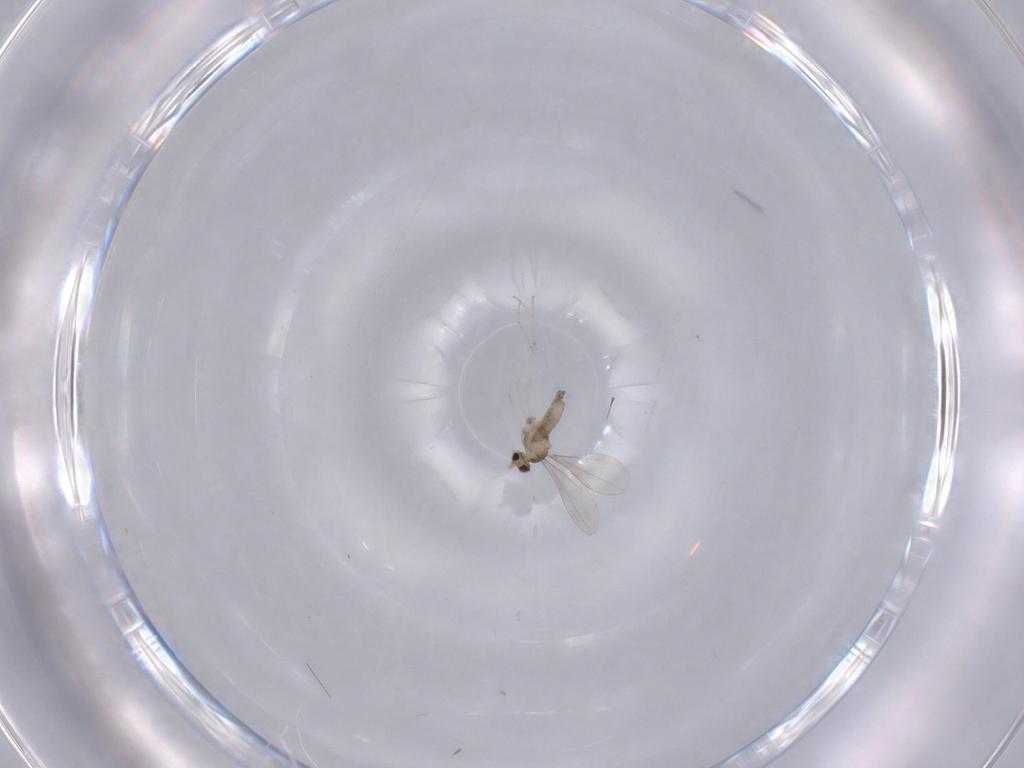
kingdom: Animalia
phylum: Arthropoda
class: Insecta
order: Diptera
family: Cecidomyiidae
